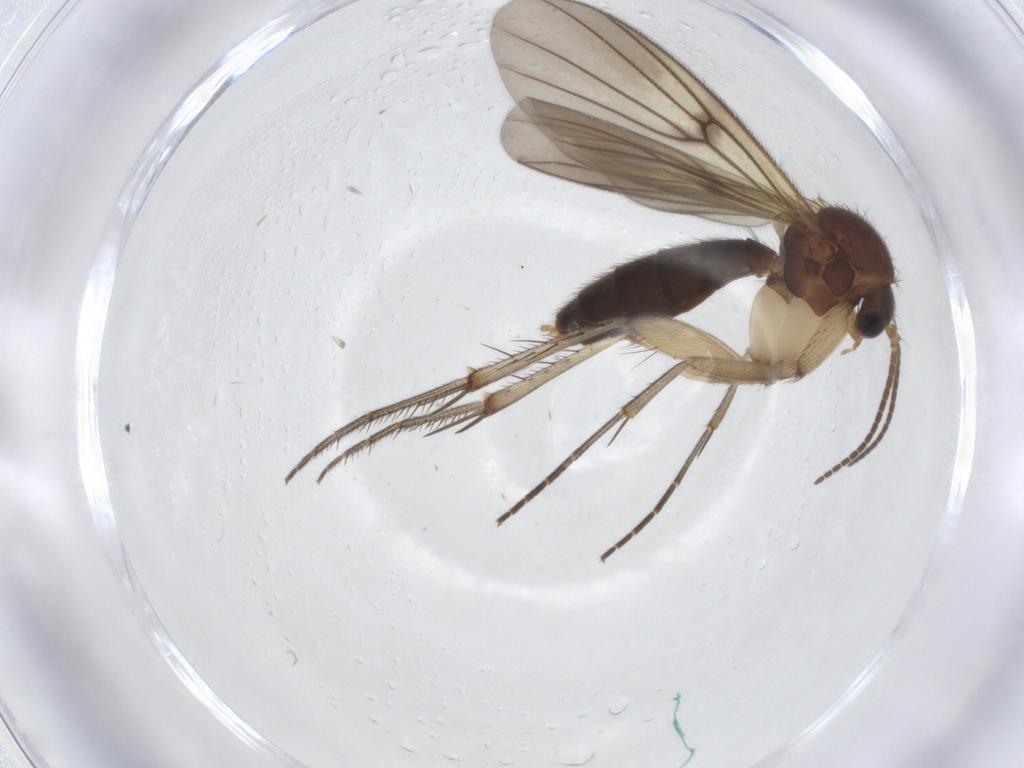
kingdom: Animalia
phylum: Arthropoda
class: Insecta
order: Diptera
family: Mycetophilidae
